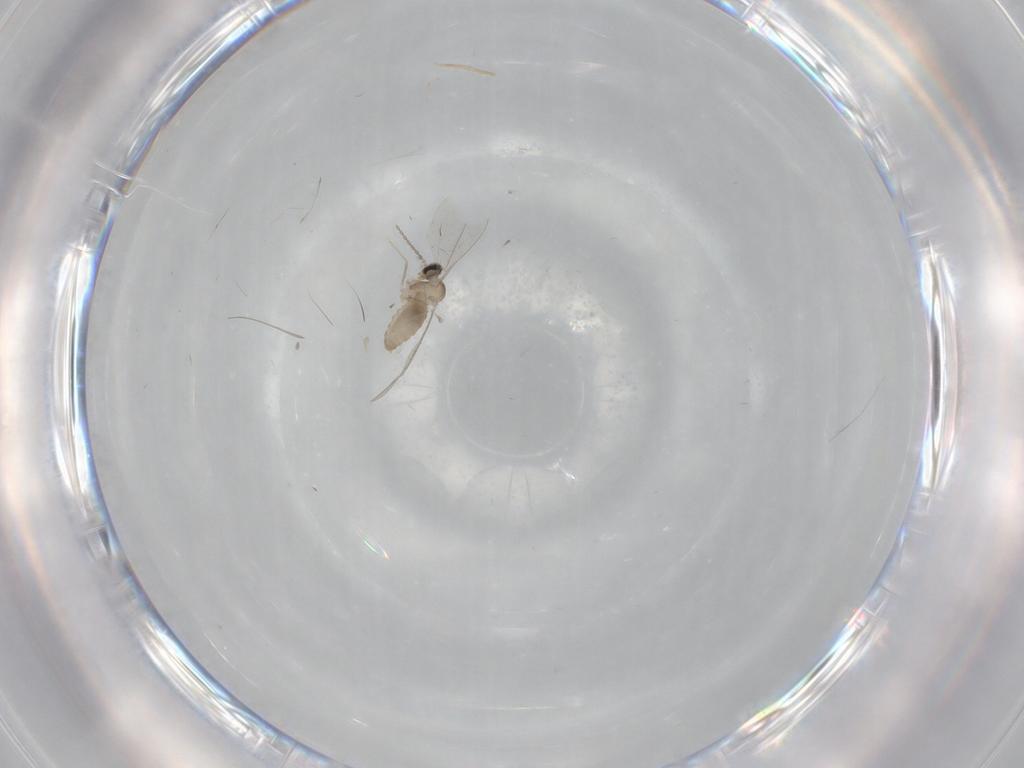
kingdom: Animalia
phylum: Arthropoda
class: Insecta
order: Diptera
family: Cecidomyiidae
